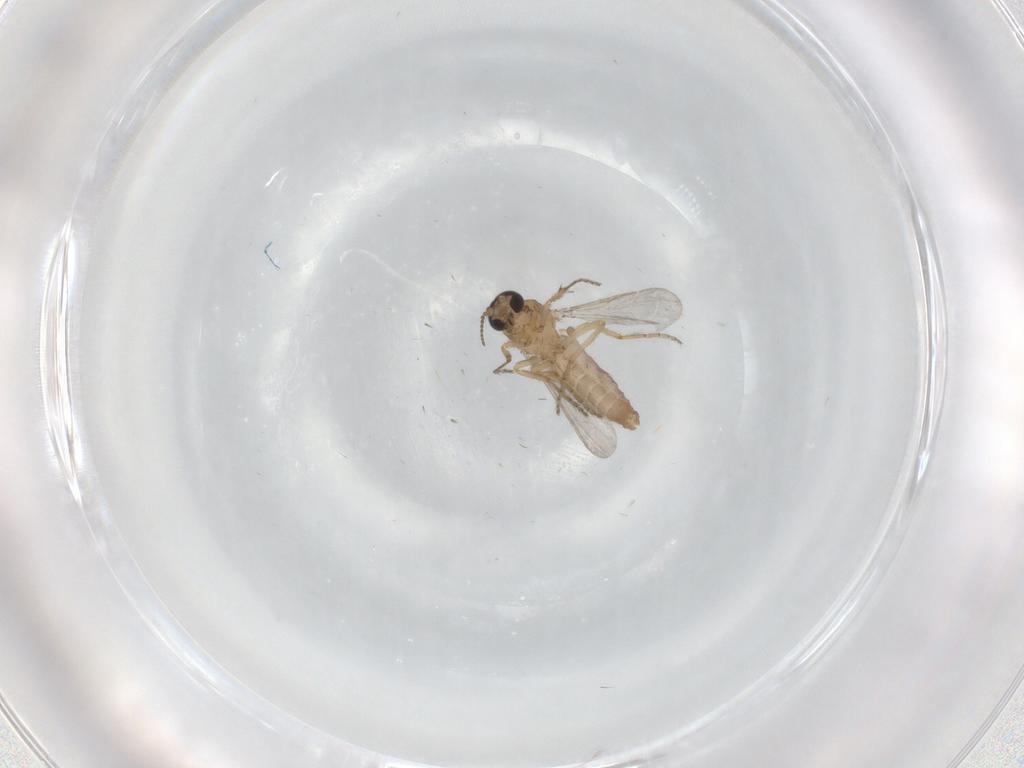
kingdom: Animalia
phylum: Arthropoda
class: Insecta
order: Diptera
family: Ceratopogonidae
